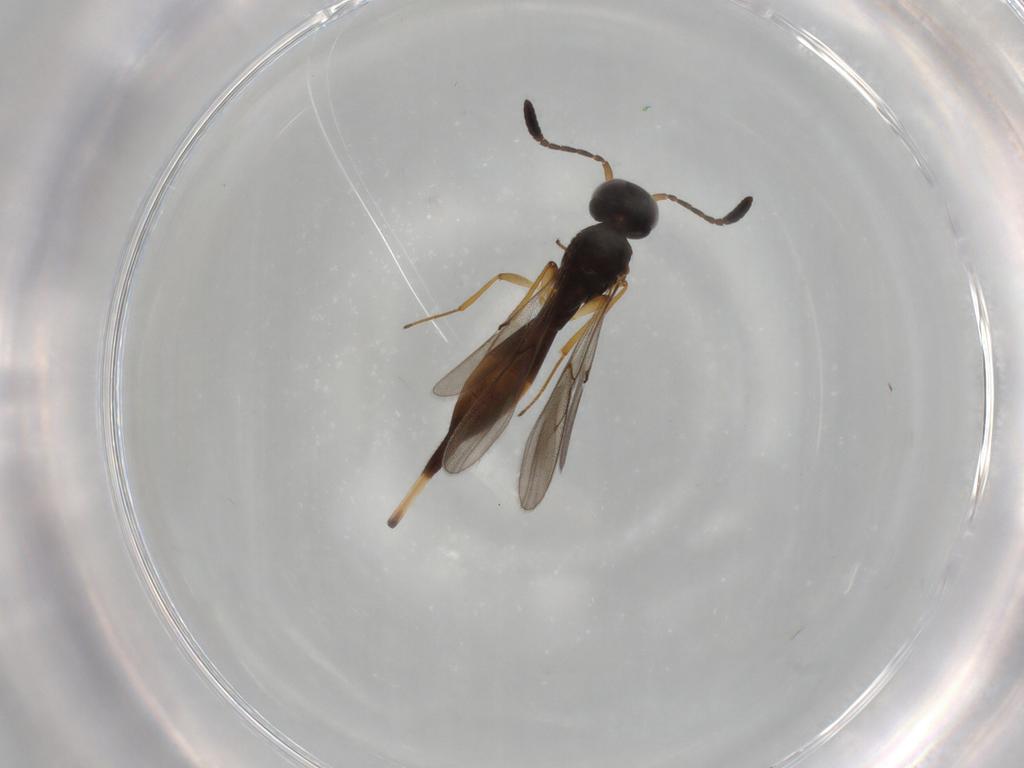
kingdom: Animalia
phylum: Arthropoda
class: Insecta
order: Hymenoptera
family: Scelionidae
